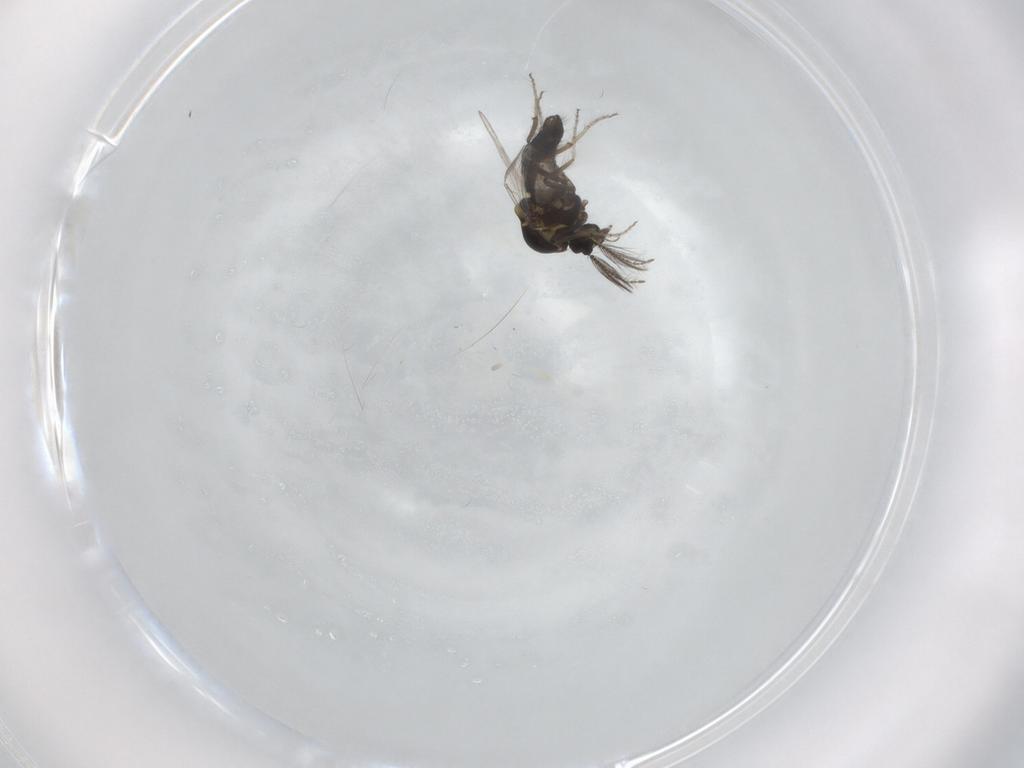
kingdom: Animalia
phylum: Arthropoda
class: Insecta
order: Diptera
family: Ceratopogonidae
